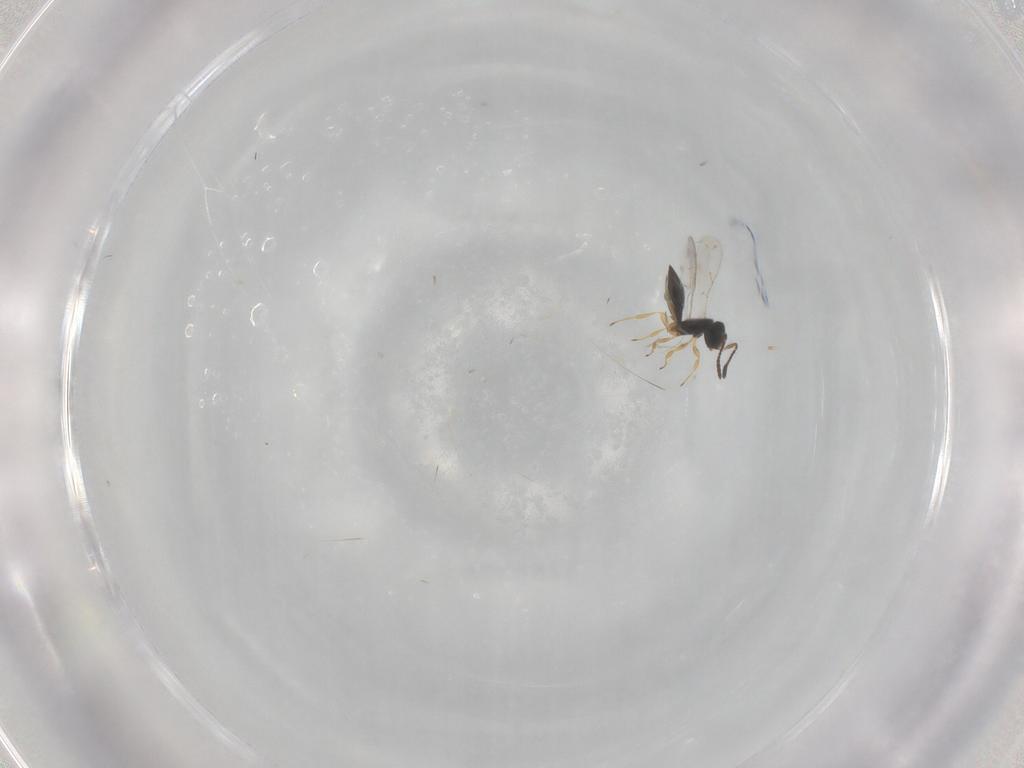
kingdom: Animalia
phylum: Arthropoda
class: Insecta
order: Hymenoptera
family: Scelionidae
